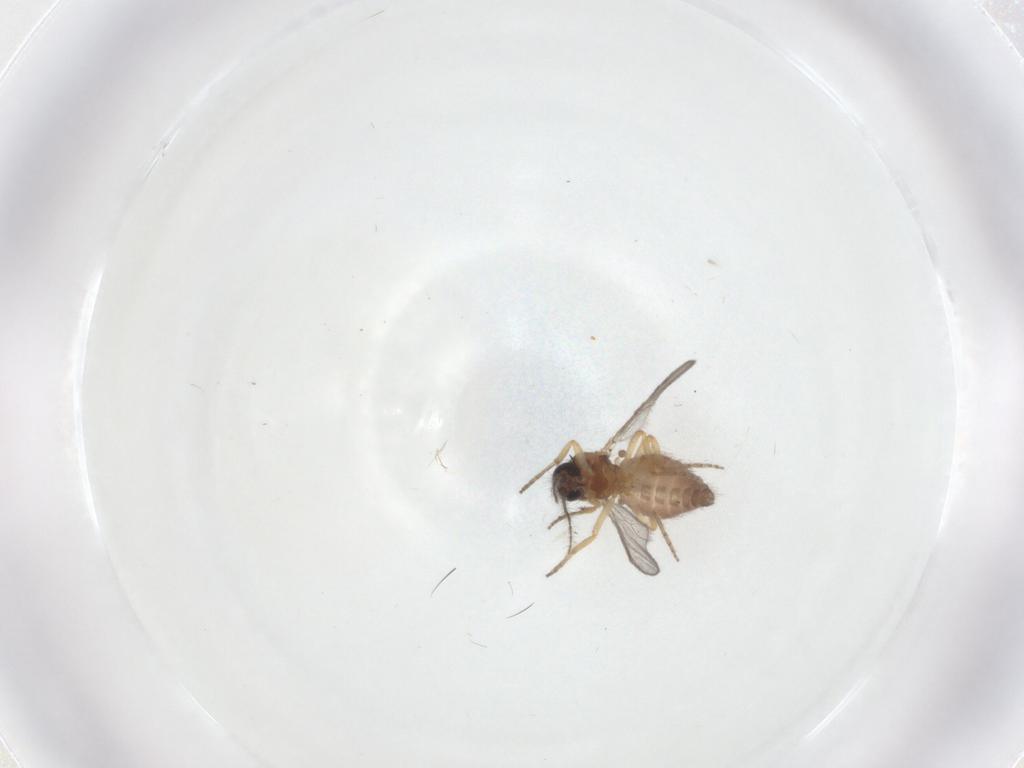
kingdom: Animalia
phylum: Arthropoda
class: Insecta
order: Diptera
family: Ceratopogonidae
